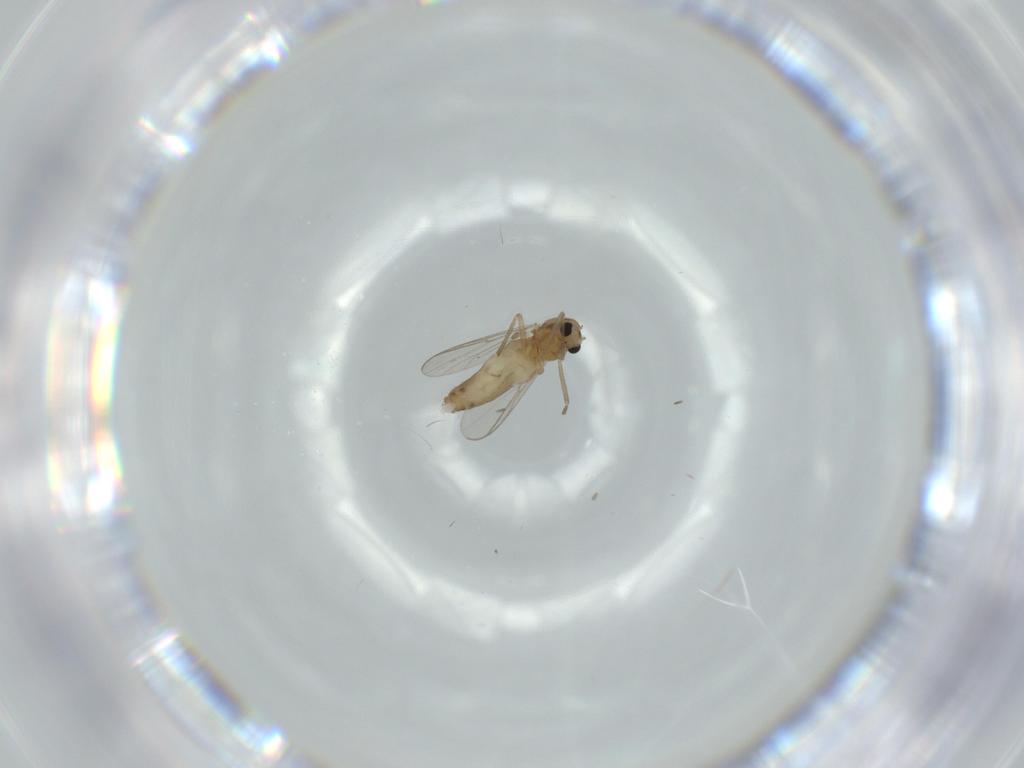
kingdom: Animalia
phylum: Arthropoda
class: Insecta
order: Diptera
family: Chironomidae
